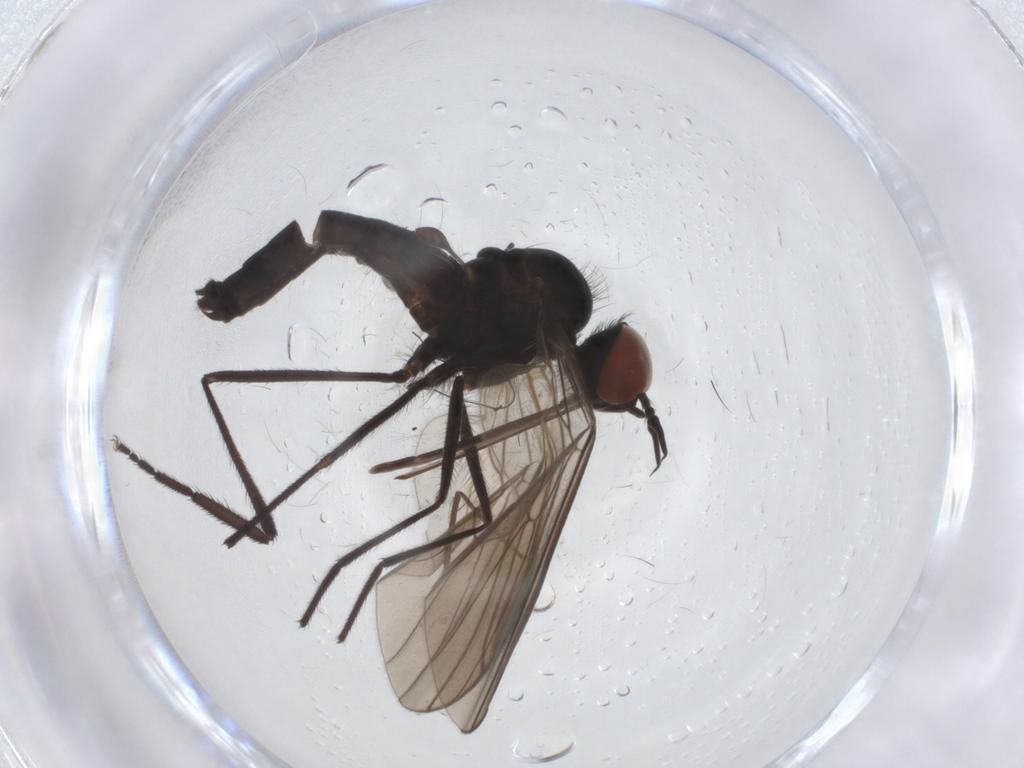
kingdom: Animalia
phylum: Arthropoda
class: Insecta
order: Diptera
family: Empididae
